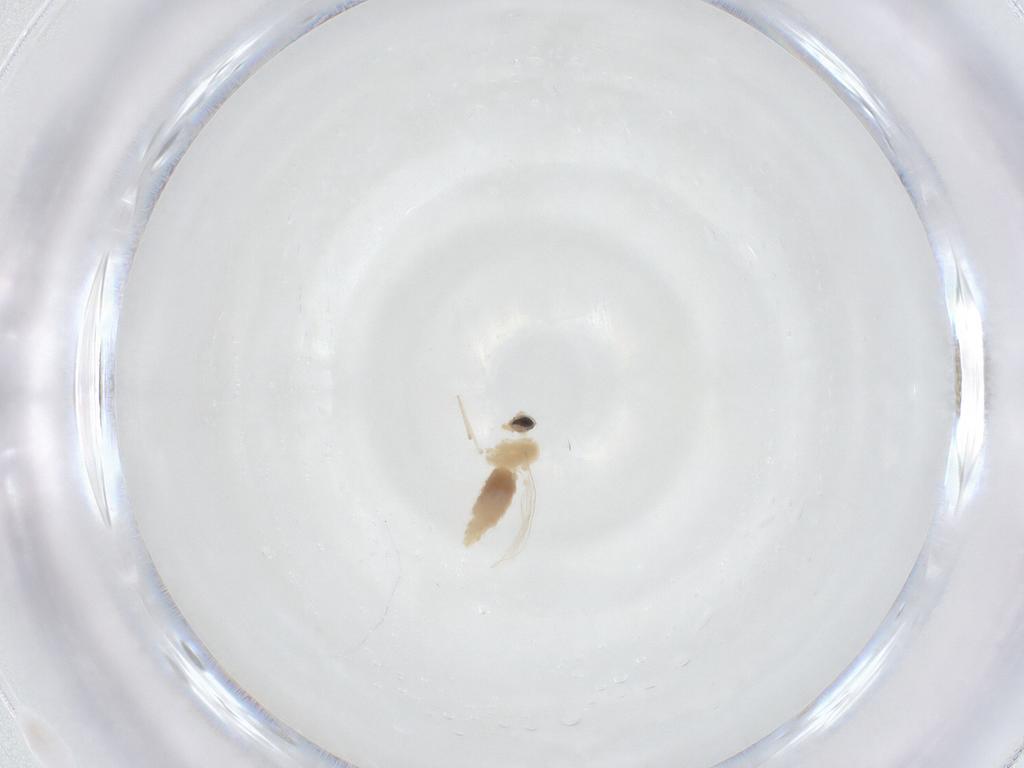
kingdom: Animalia
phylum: Arthropoda
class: Insecta
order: Diptera
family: Cecidomyiidae
